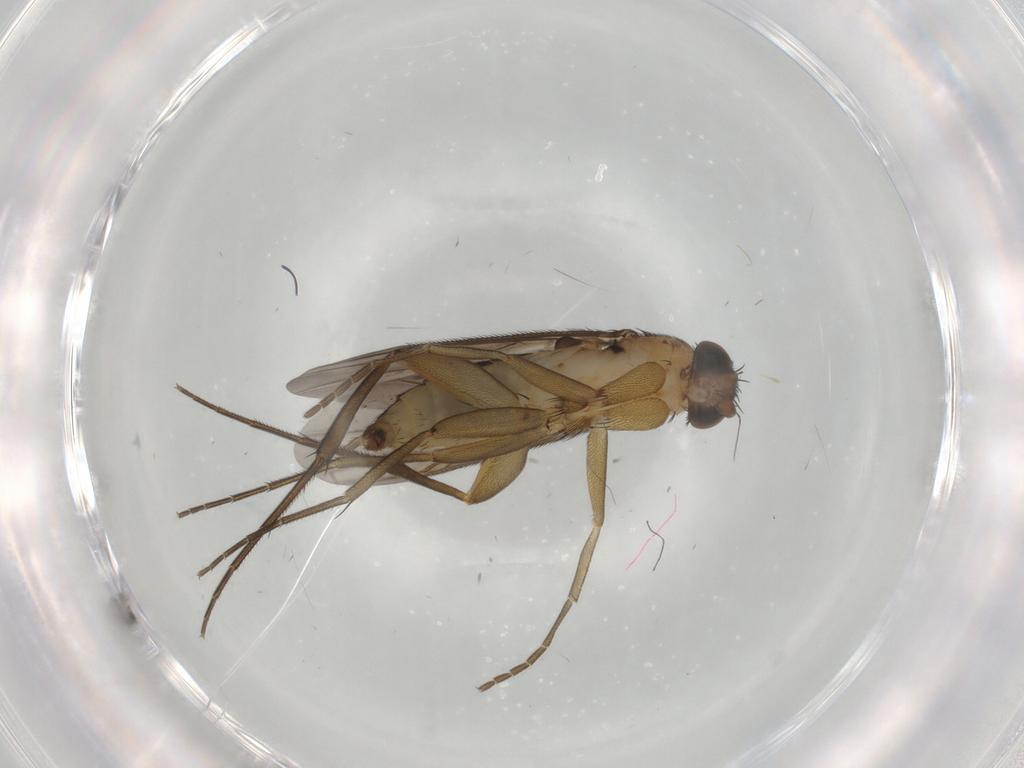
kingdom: Animalia
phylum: Arthropoda
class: Insecta
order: Diptera
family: Phoridae
